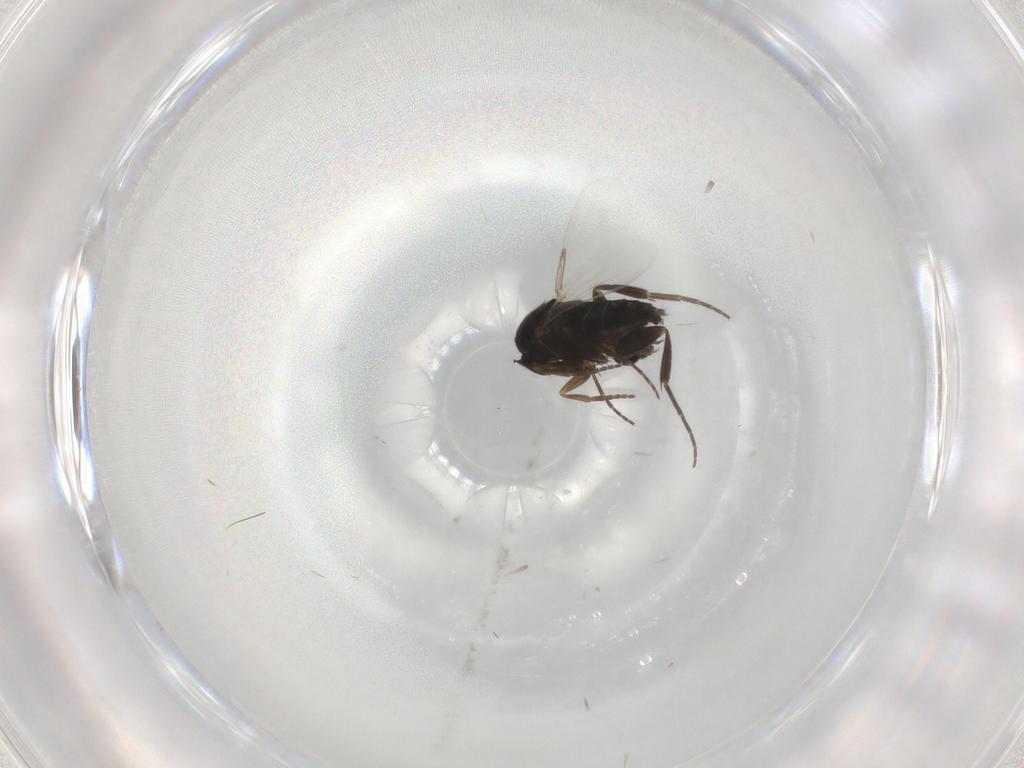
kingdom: Animalia
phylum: Arthropoda
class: Insecta
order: Diptera
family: Phoridae
